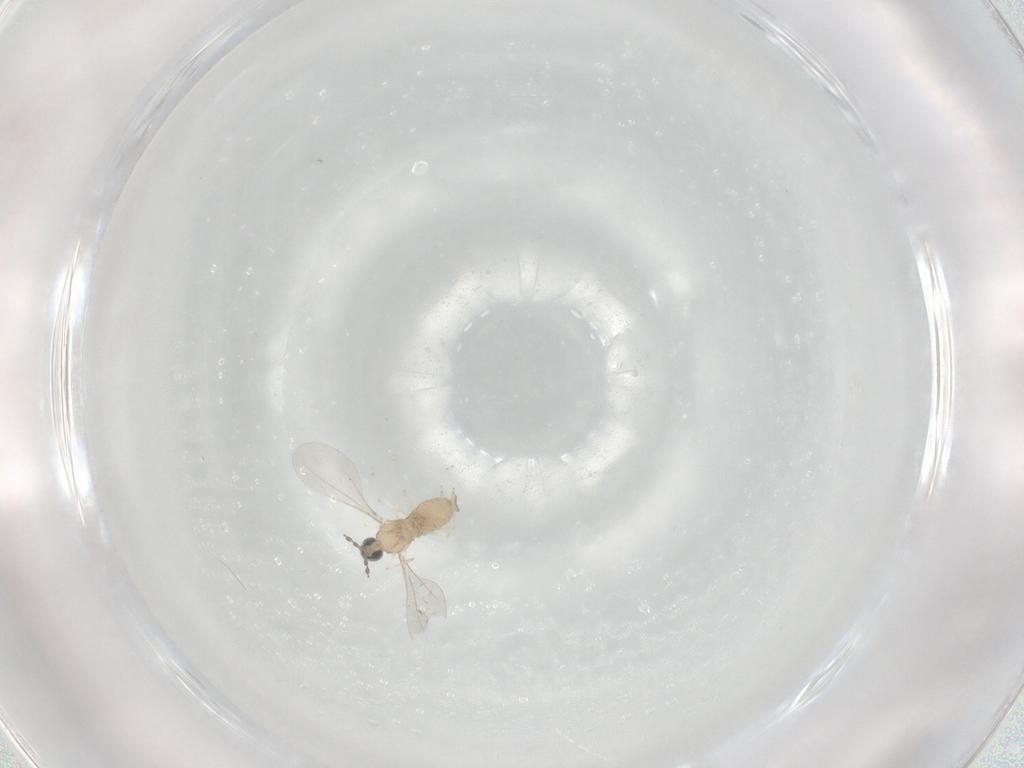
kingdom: Animalia
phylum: Arthropoda
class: Insecta
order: Diptera
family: Cecidomyiidae
